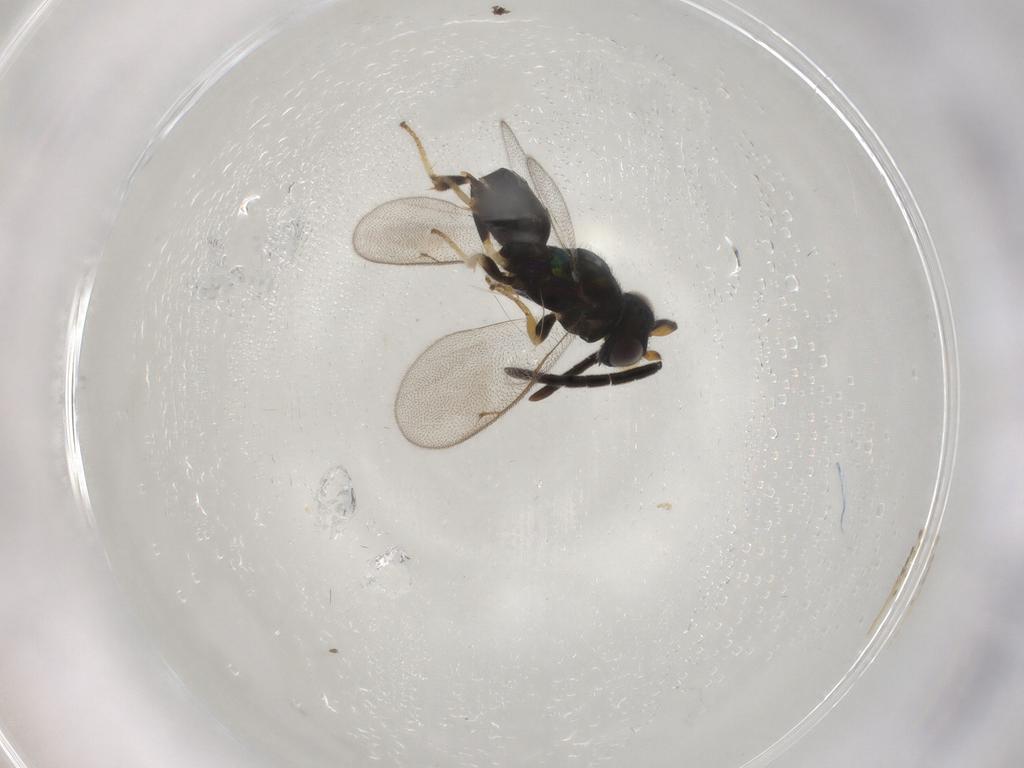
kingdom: Animalia
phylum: Arthropoda
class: Insecta
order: Hymenoptera
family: Eupelmidae
